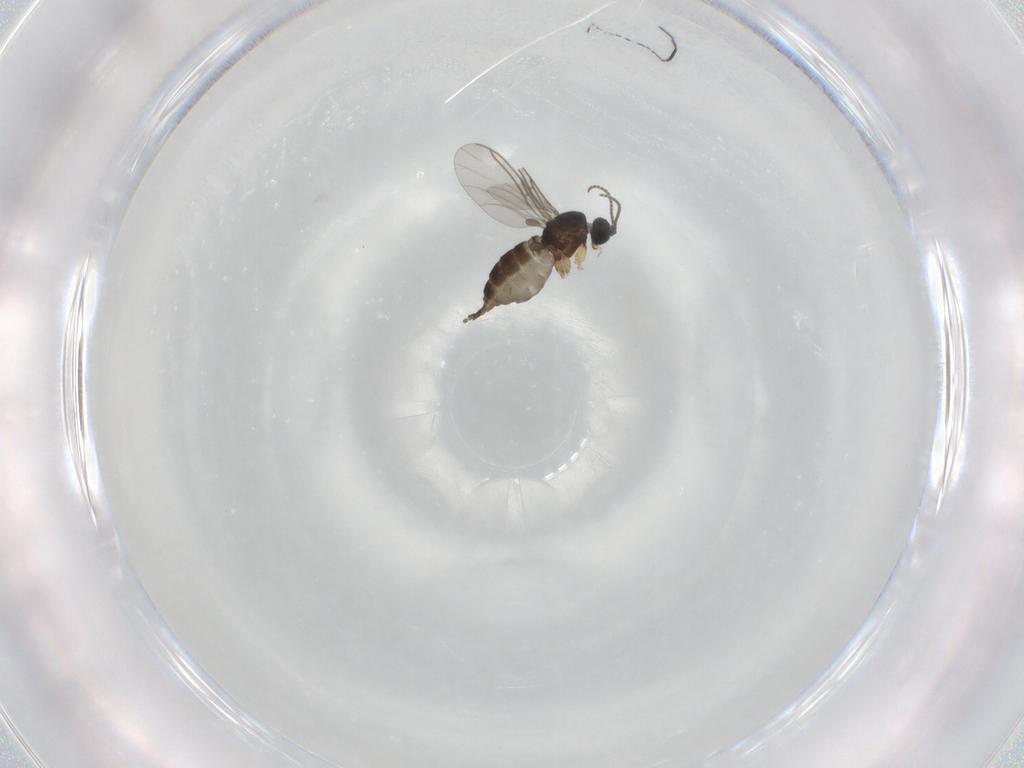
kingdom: Animalia
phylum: Arthropoda
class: Insecta
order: Diptera
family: Sciaridae
